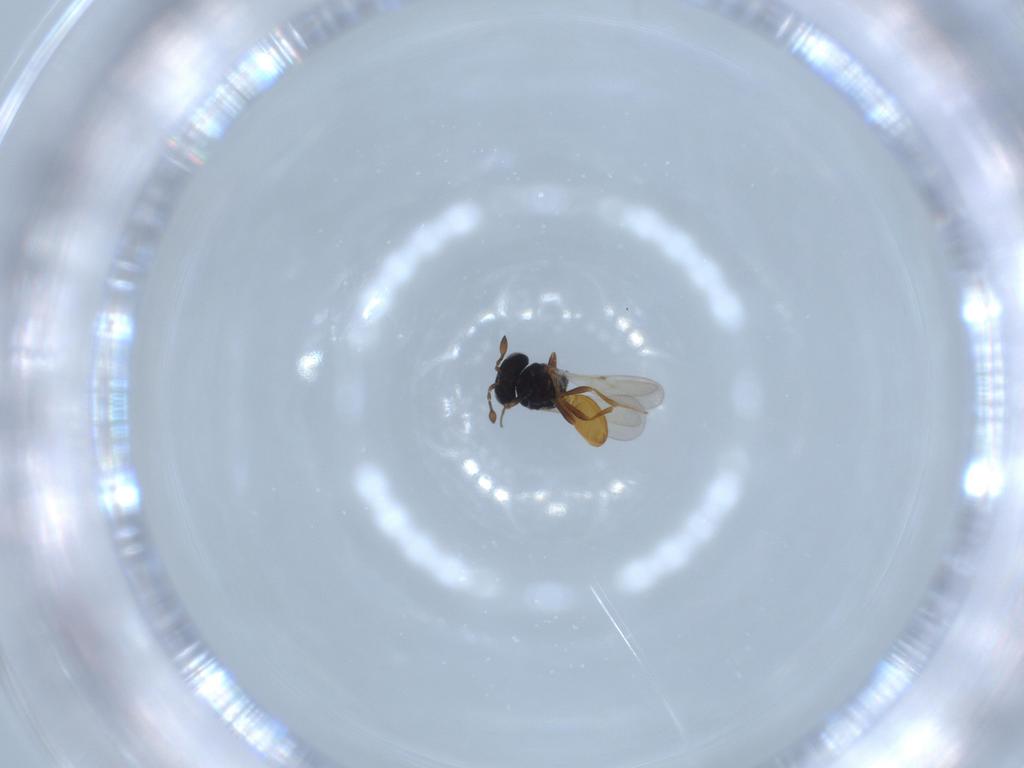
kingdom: Animalia
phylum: Arthropoda
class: Insecta
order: Hymenoptera
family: Scelionidae
